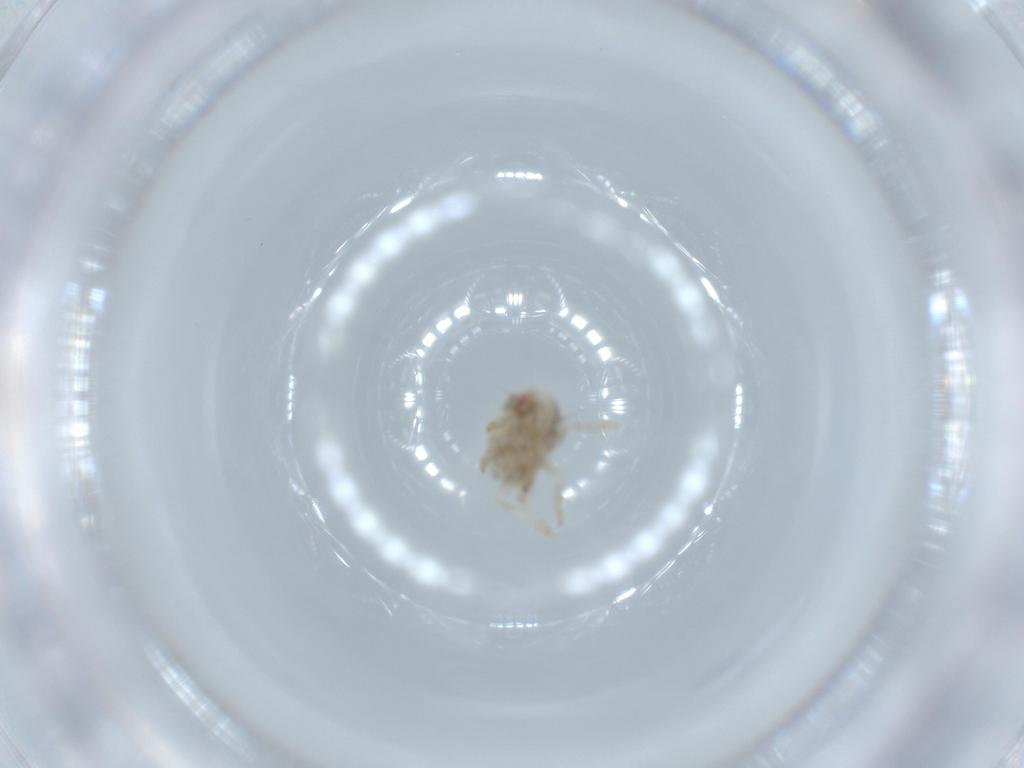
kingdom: Animalia
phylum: Arthropoda
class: Insecta
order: Hemiptera
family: Acanaloniidae
